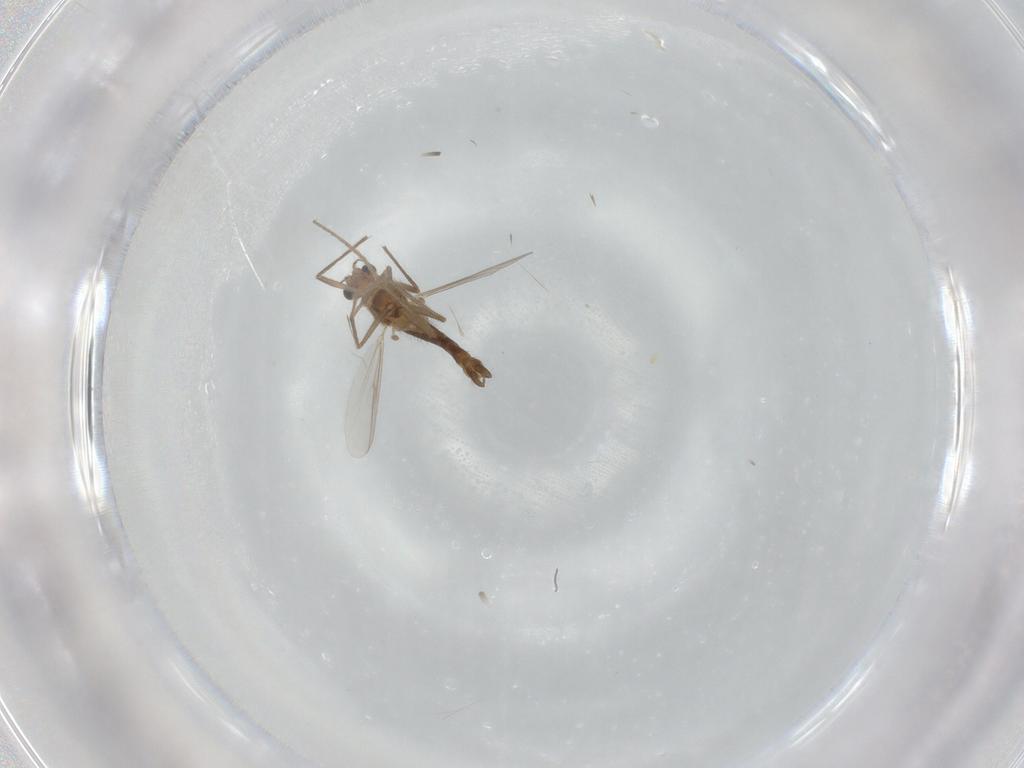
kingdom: Animalia
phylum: Arthropoda
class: Insecta
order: Diptera
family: Chironomidae
